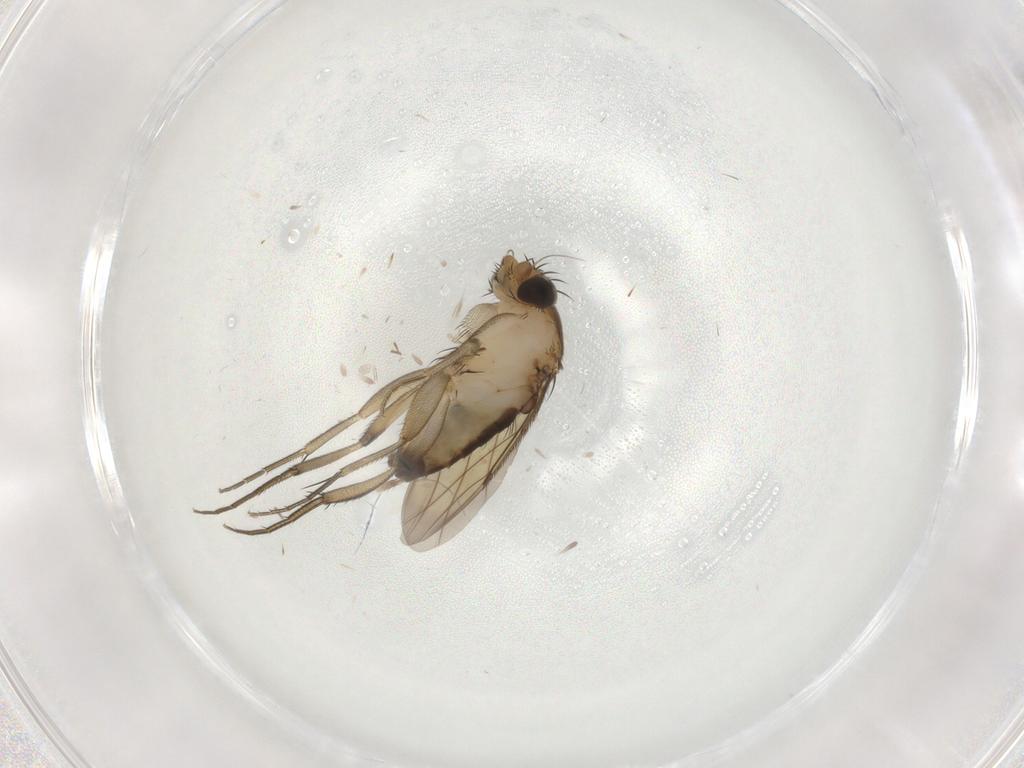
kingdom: Animalia
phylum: Arthropoda
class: Insecta
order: Diptera
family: Phoridae
